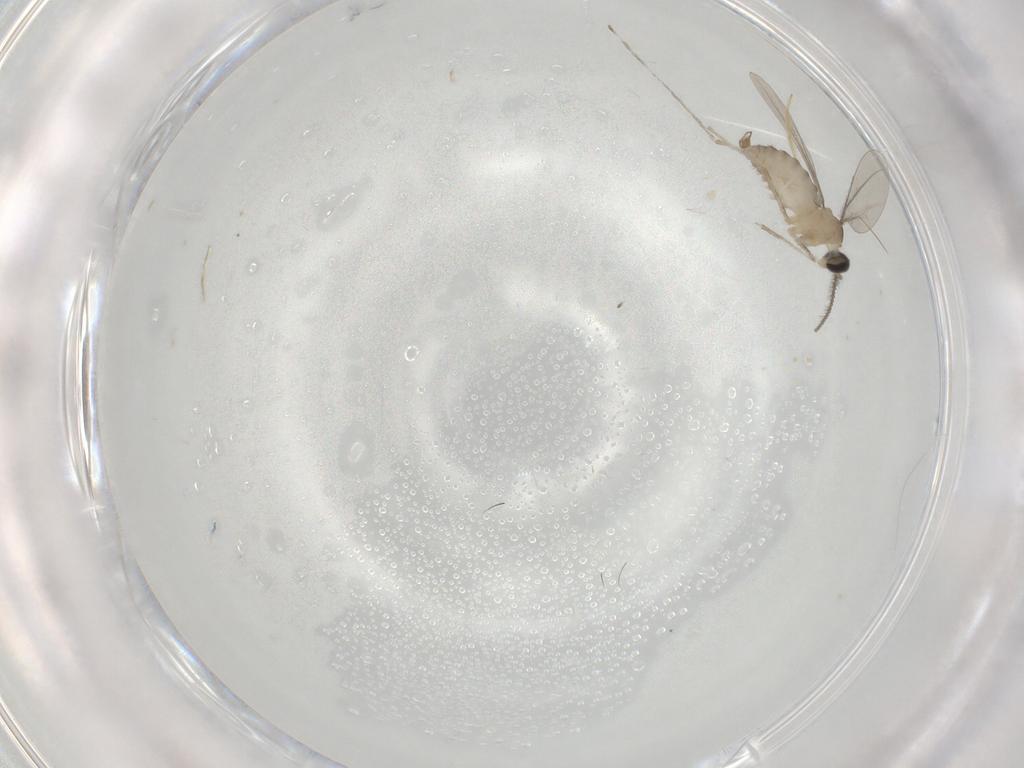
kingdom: Animalia
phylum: Arthropoda
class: Insecta
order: Diptera
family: Cecidomyiidae
